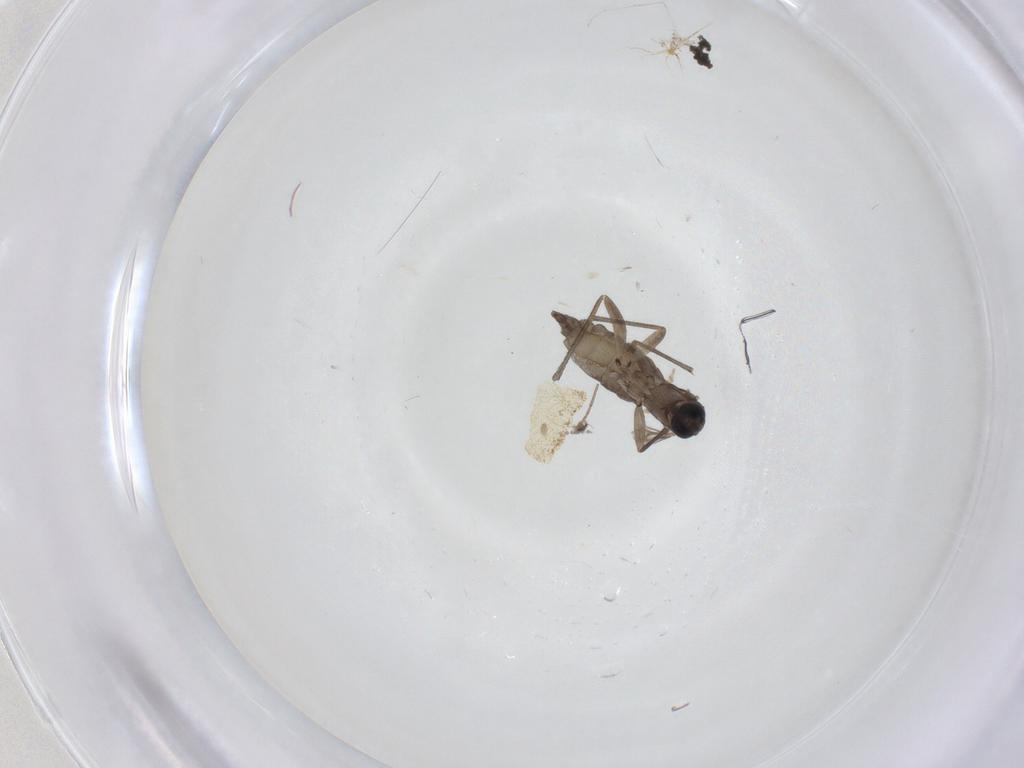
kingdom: Animalia
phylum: Arthropoda
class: Insecta
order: Diptera
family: Sciaridae
